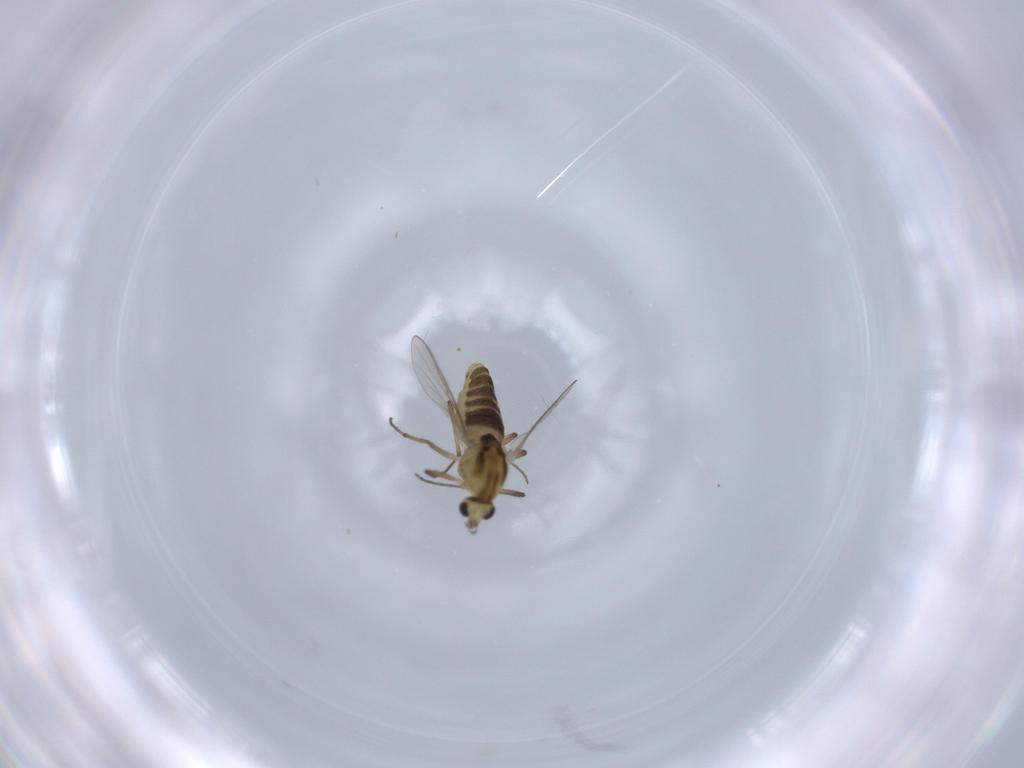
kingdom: Animalia
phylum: Arthropoda
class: Insecta
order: Diptera
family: Chironomidae
